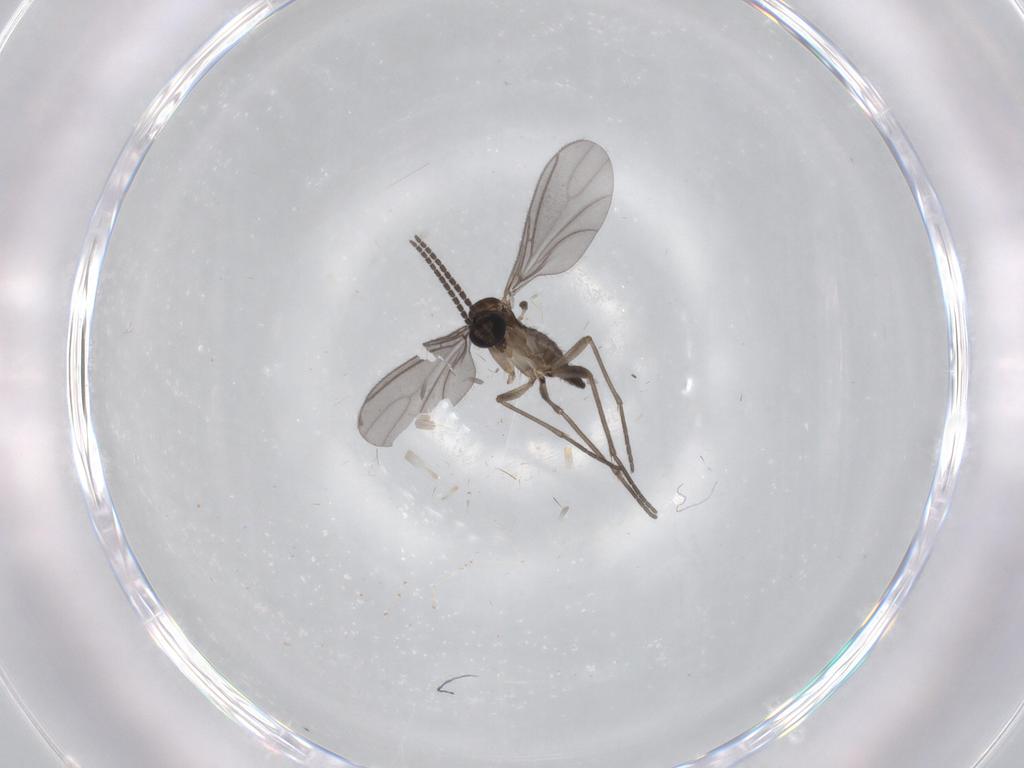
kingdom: Animalia
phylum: Arthropoda
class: Insecta
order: Diptera
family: Sciaridae
